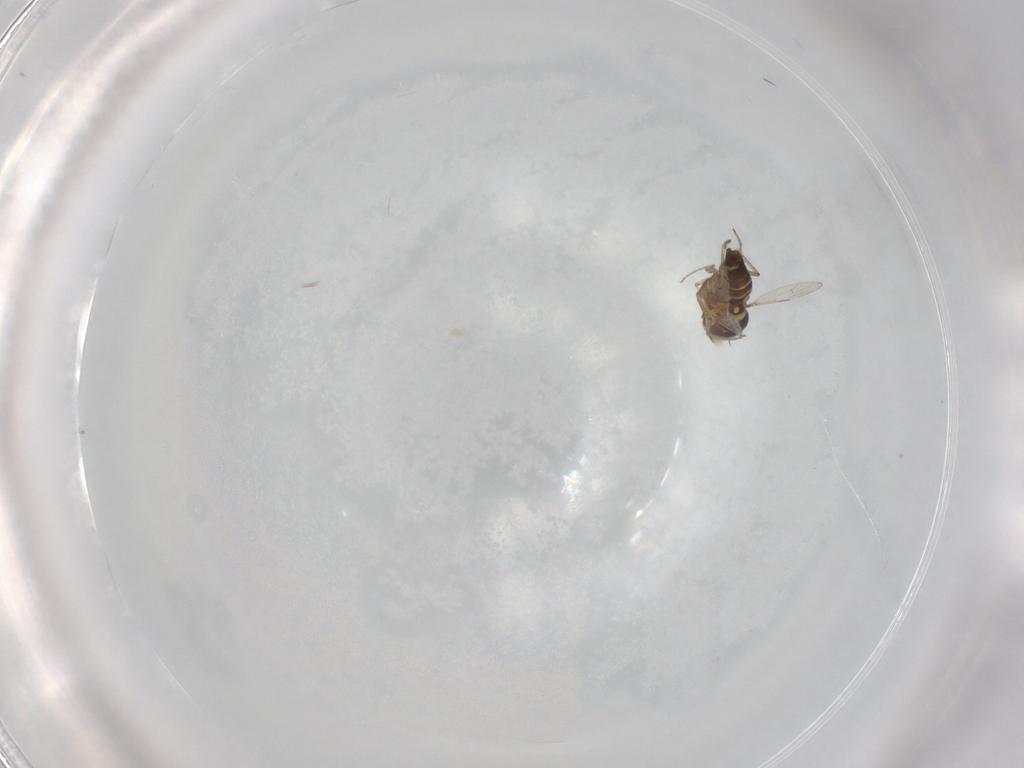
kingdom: Animalia
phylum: Arthropoda
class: Insecta
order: Diptera
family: Ceratopogonidae
